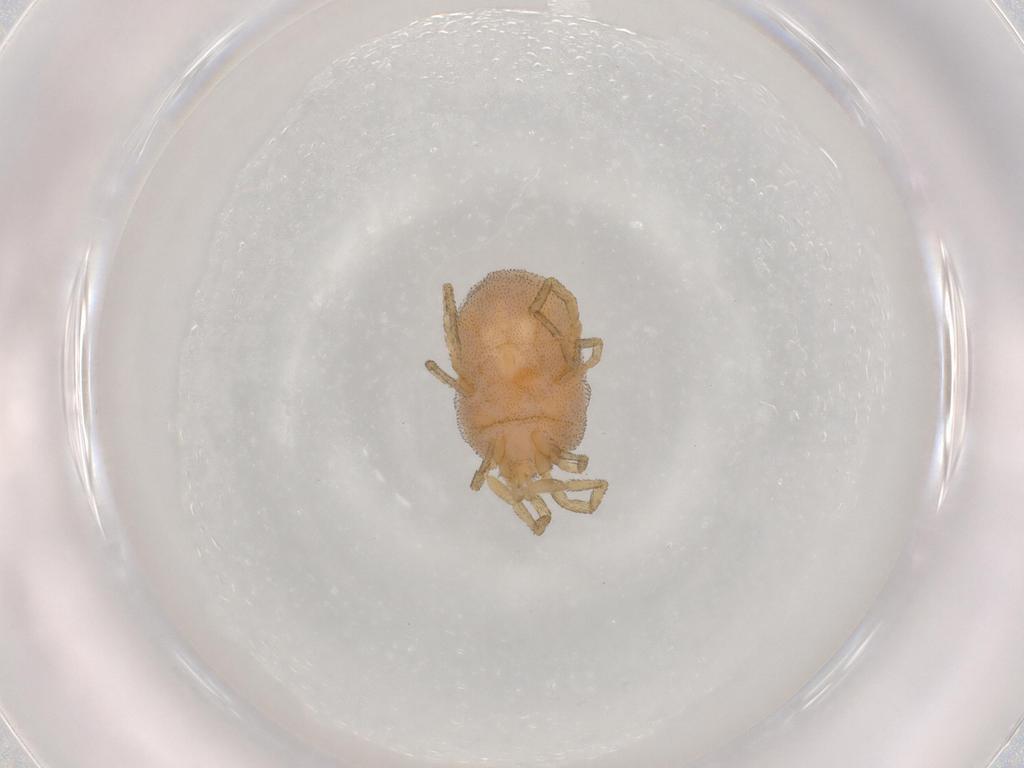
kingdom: Animalia
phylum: Arthropoda
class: Arachnida
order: Trombidiformes
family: Erythraeidae
